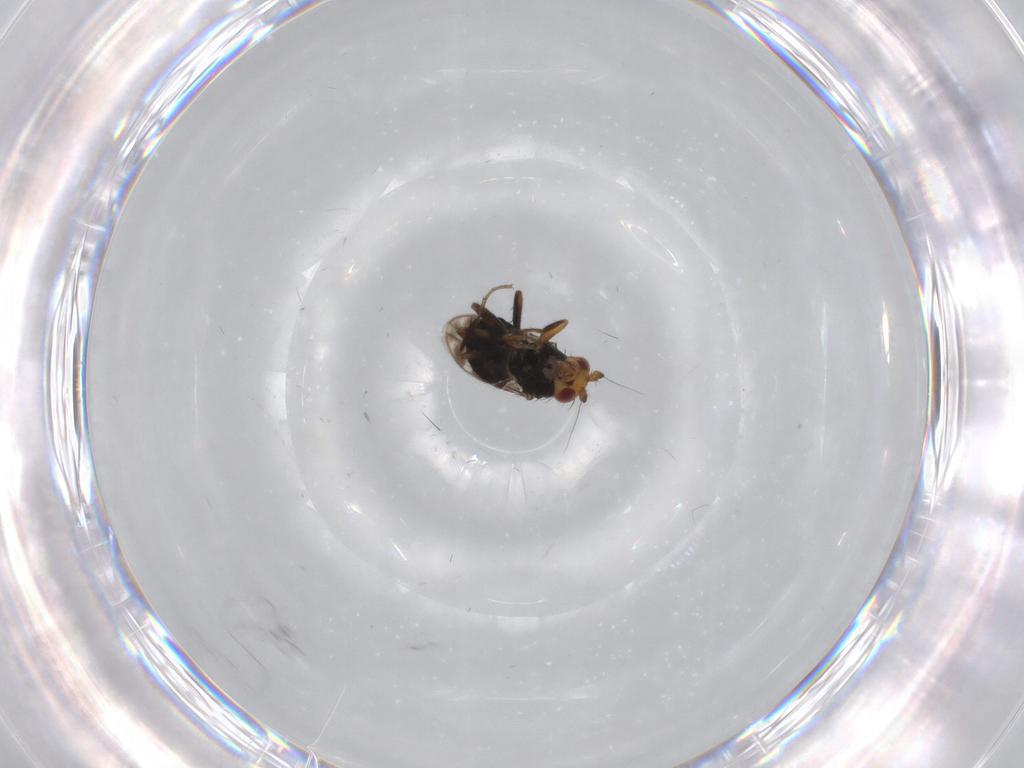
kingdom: Animalia
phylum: Arthropoda
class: Insecta
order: Diptera
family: Sphaeroceridae
